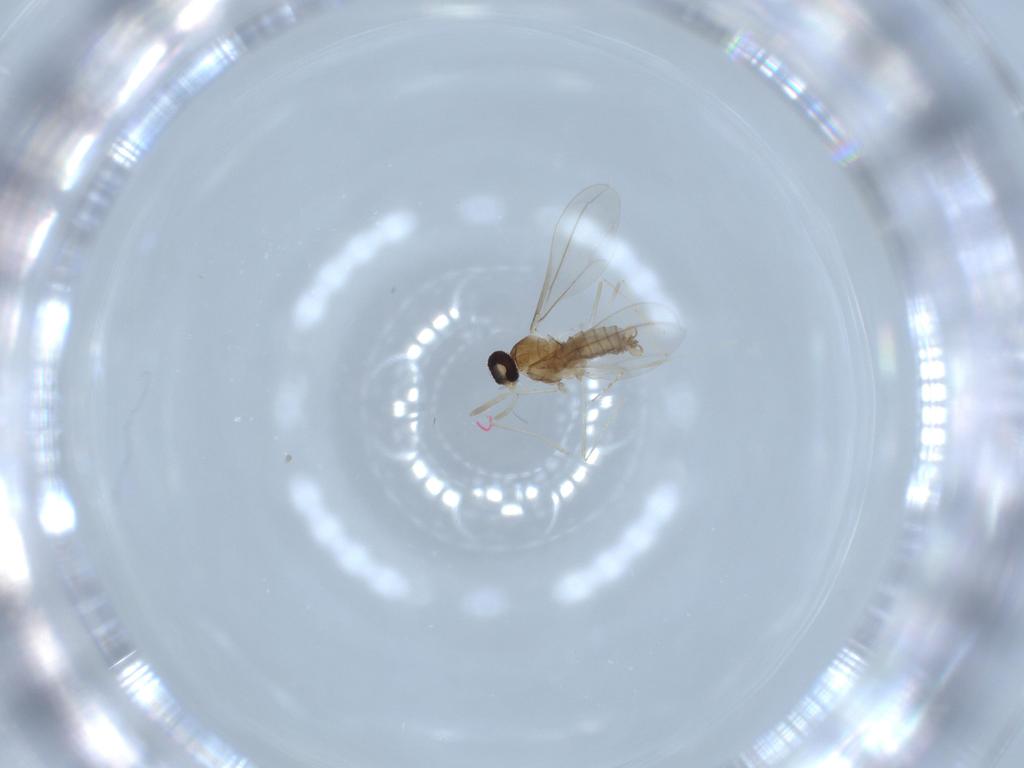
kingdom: Animalia
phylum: Arthropoda
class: Insecta
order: Diptera
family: Cecidomyiidae
